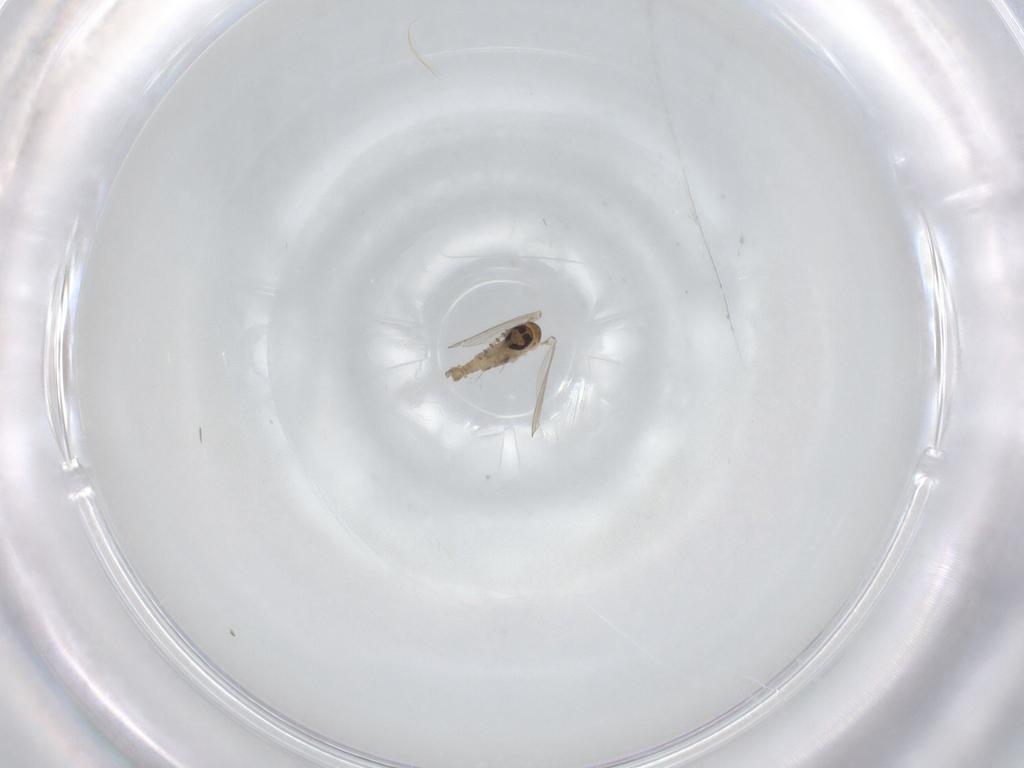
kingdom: Animalia
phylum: Arthropoda
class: Insecta
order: Diptera
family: Psychodidae
